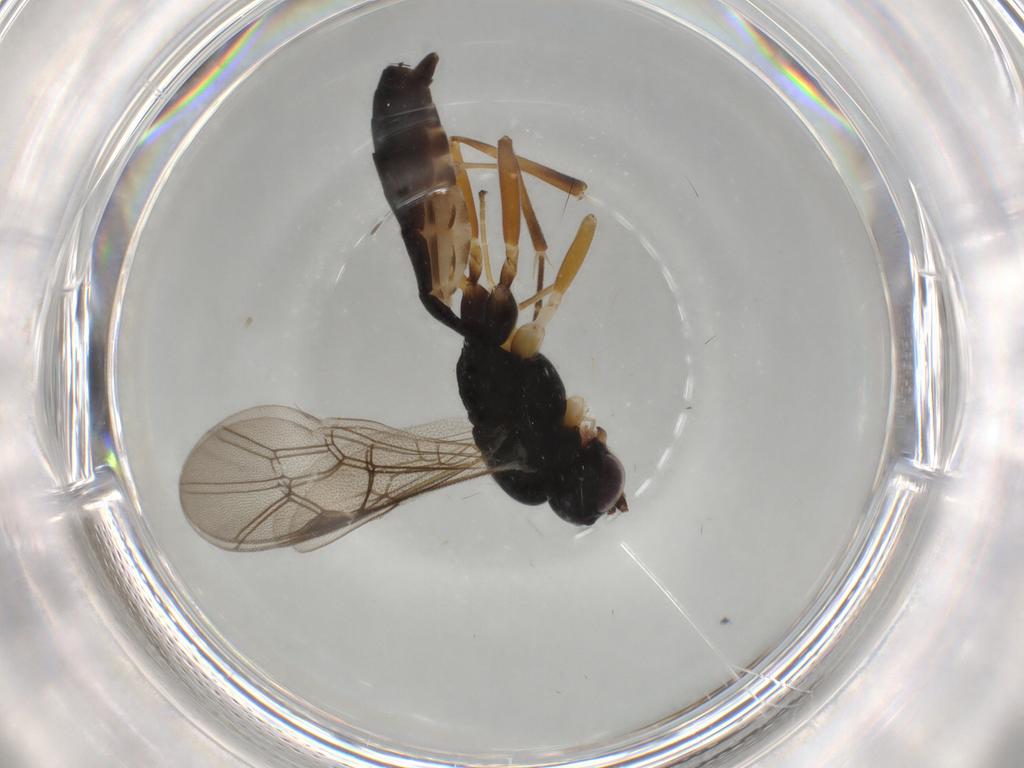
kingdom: Animalia
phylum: Arthropoda
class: Insecta
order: Hymenoptera
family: Ichneumonidae
